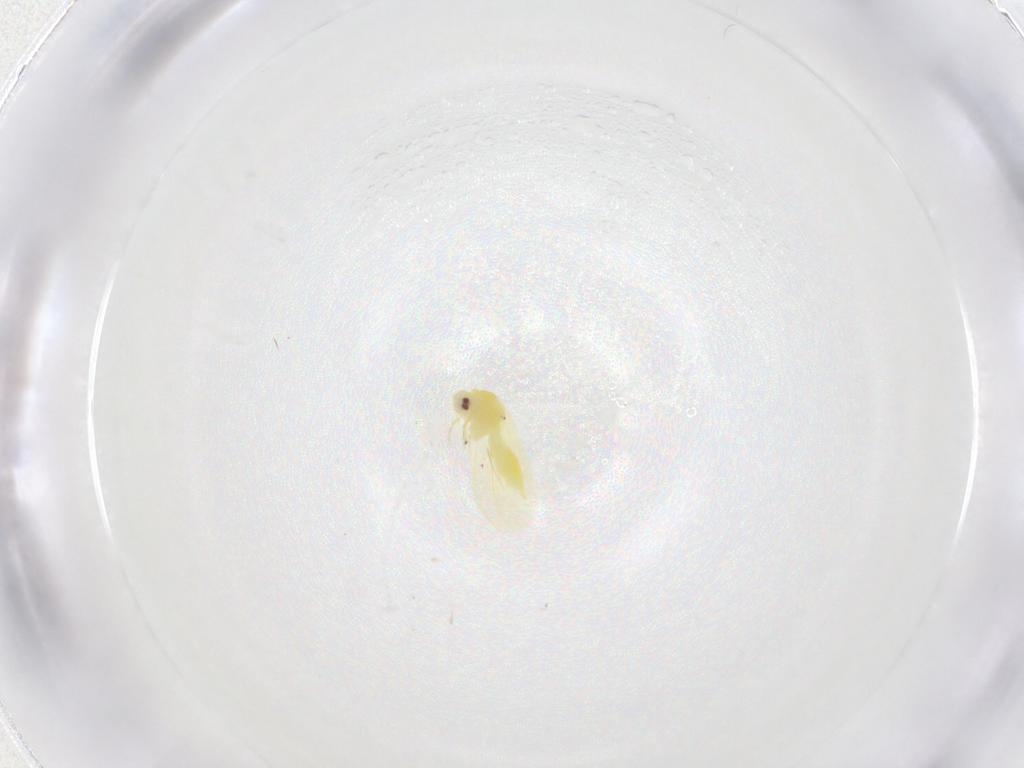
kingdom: Animalia
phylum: Arthropoda
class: Insecta
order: Hemiptera
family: Aleyrodidae
